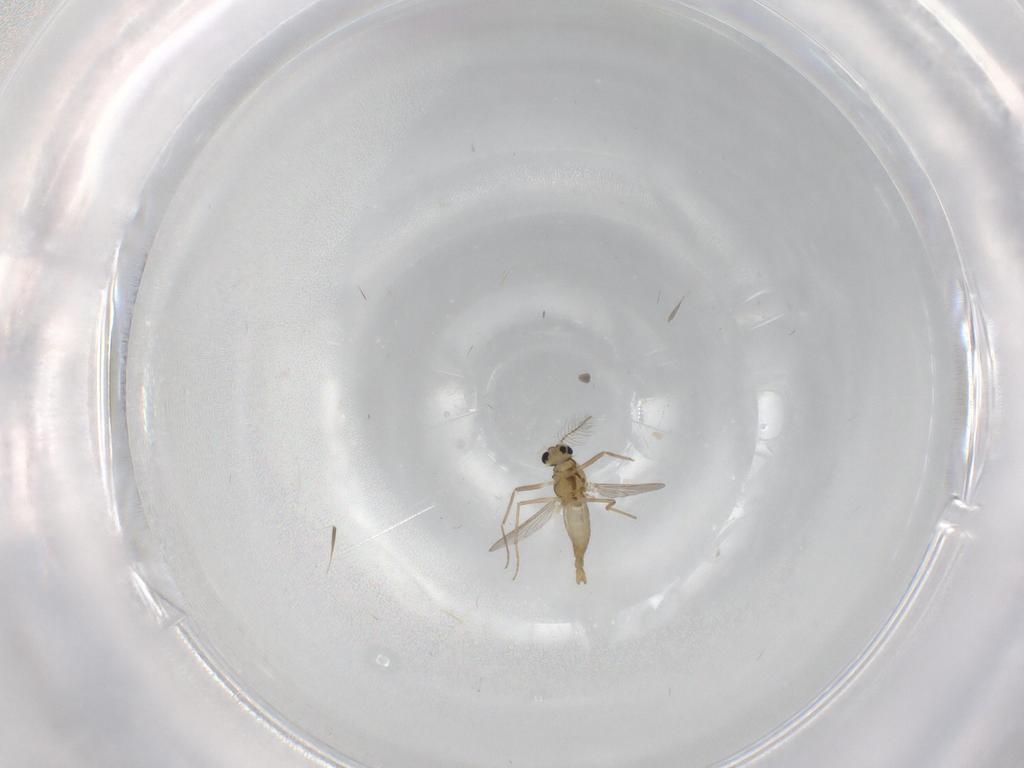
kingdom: Animalia
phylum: Arthropoda
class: Insecta
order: Diptera
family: Chironomidae
